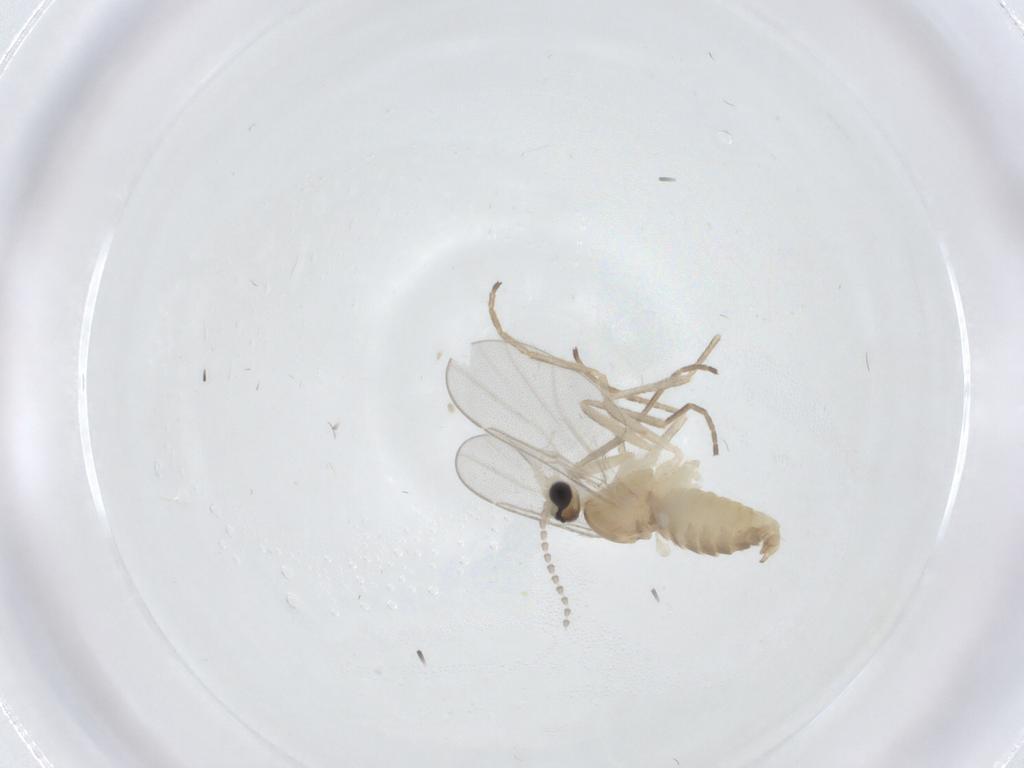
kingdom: Animalia
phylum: Arthropoda
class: Insecta
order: Diptera
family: Cecidomyiidae
